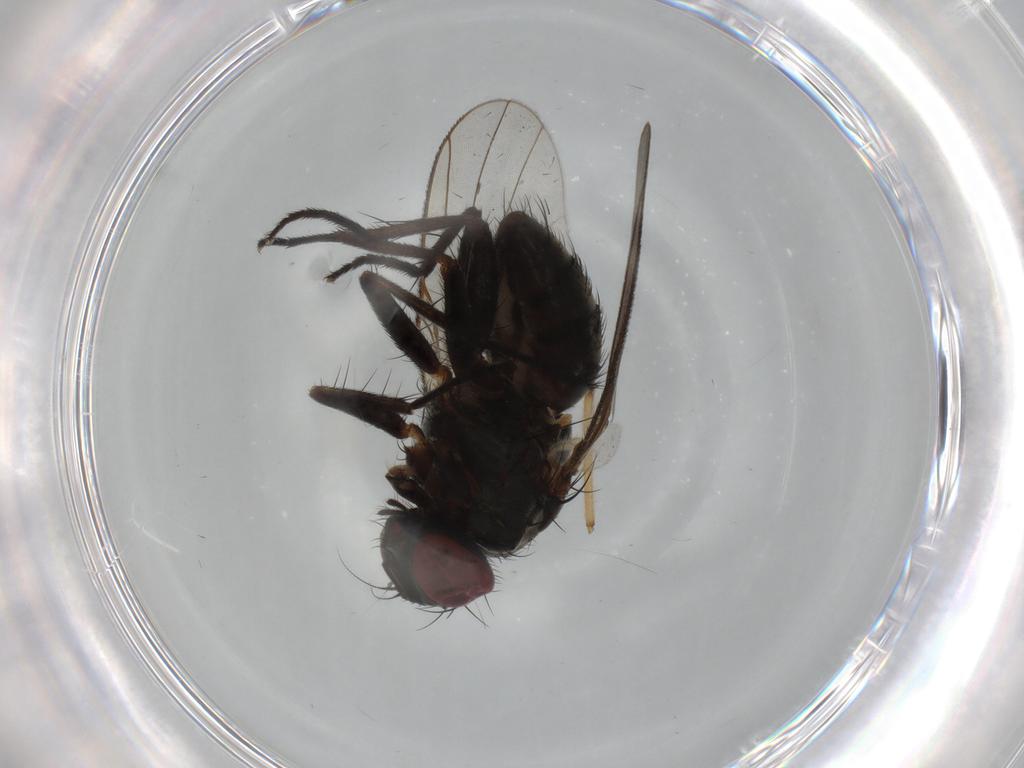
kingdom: Animalia
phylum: Arthropoda
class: Insecta
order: Diptera
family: Muscidae
